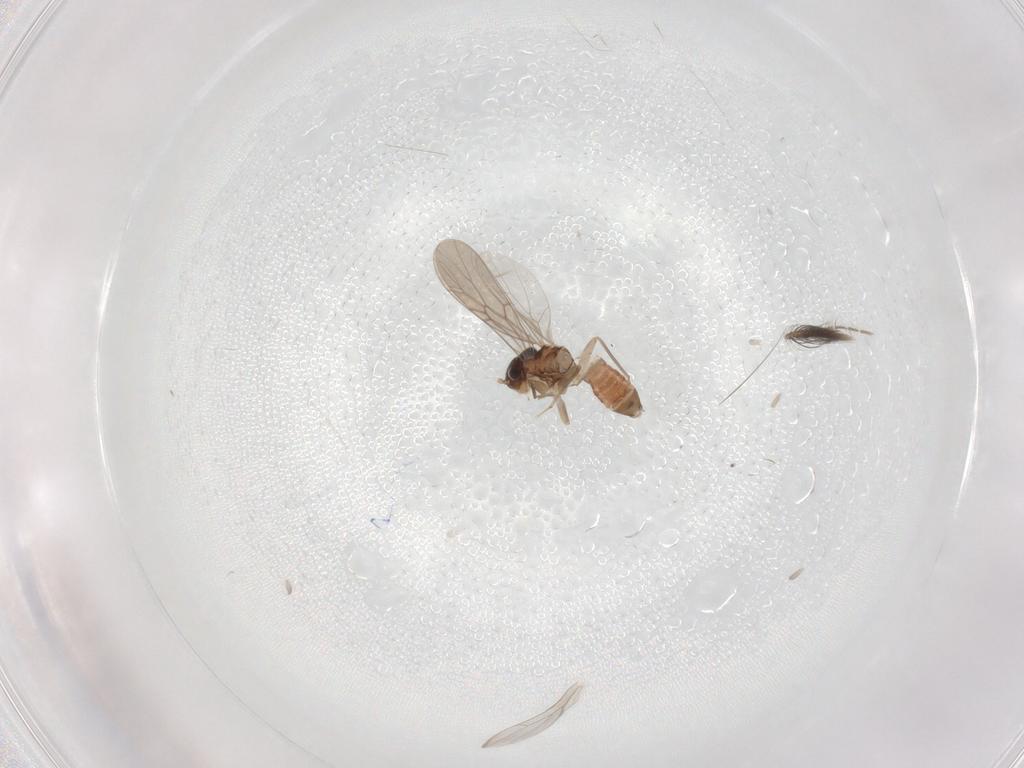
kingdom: Animalia
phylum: Arthropoda
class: Insecta
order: Psocodea
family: Lepidopsocidae
